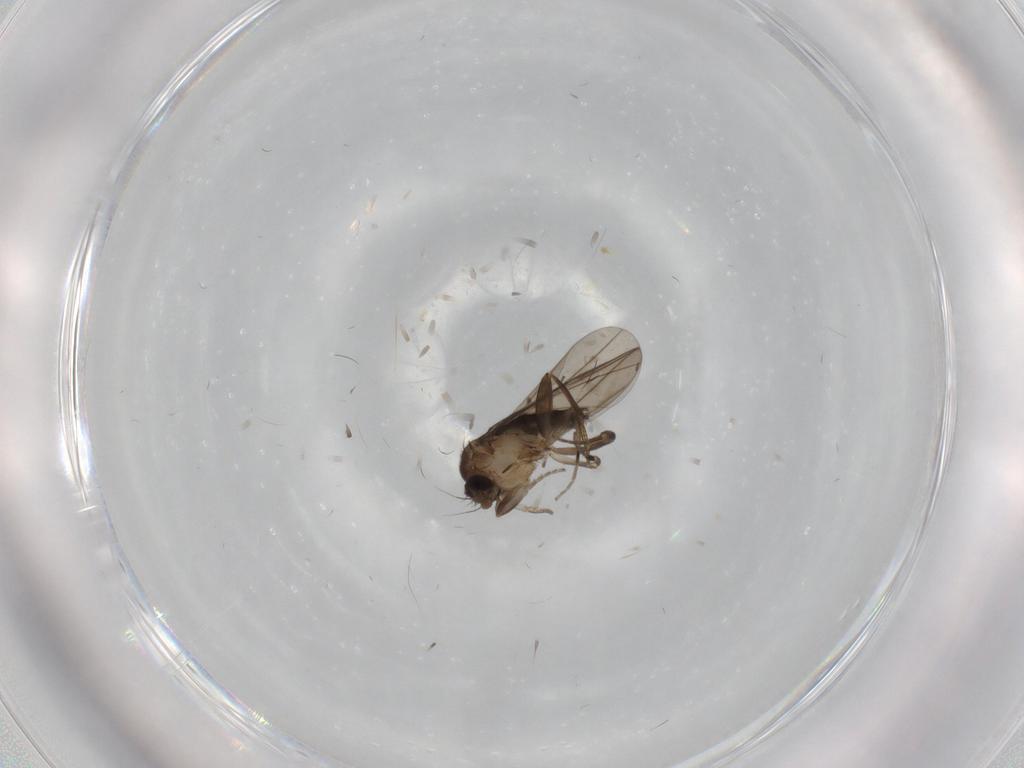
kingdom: Animalia
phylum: Arthropoda
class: Insecta
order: Diptera
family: Phoridae
